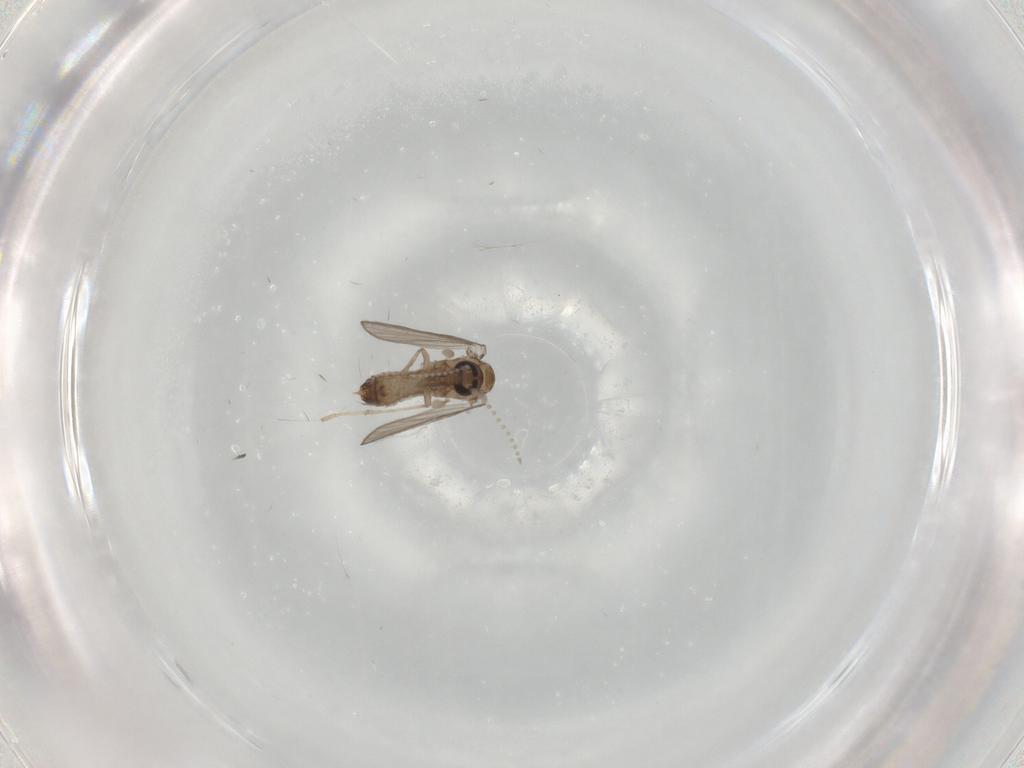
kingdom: Animalia
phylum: Arthropoda
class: Insecta
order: Diptera
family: Psychodidae
